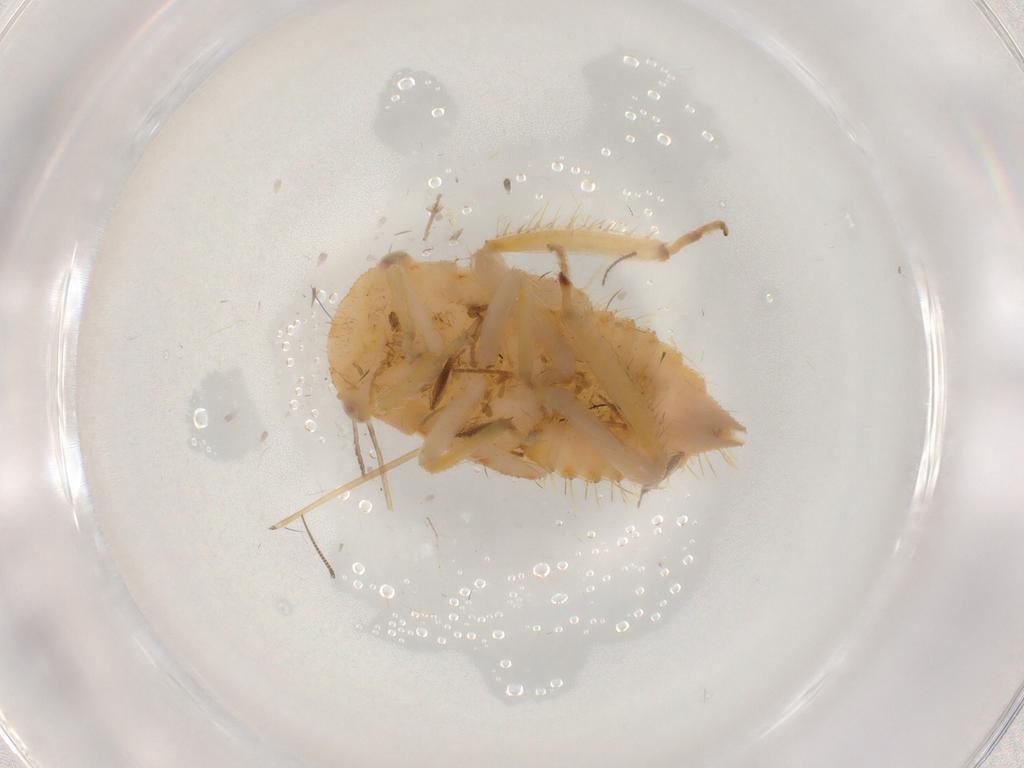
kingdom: Animalia
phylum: Arthropoda
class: Insecta
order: Hemiptera
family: Cicadellidae
